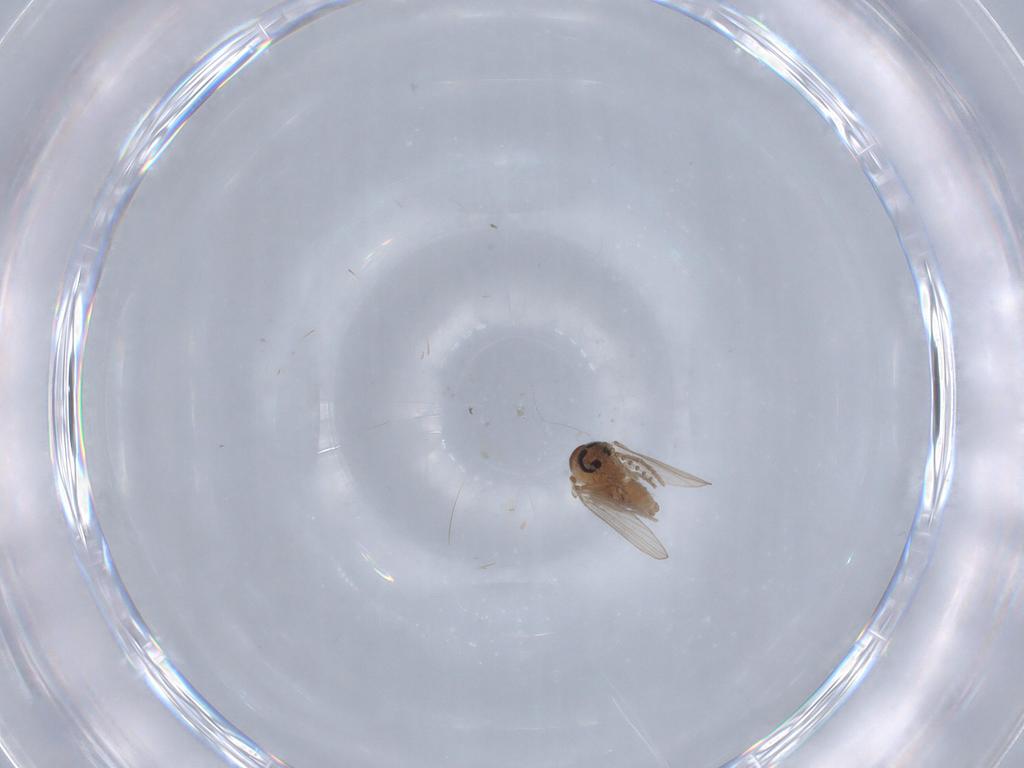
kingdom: Animalia
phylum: Arthropoda
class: Insecta
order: Diptera
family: Psychodidae
